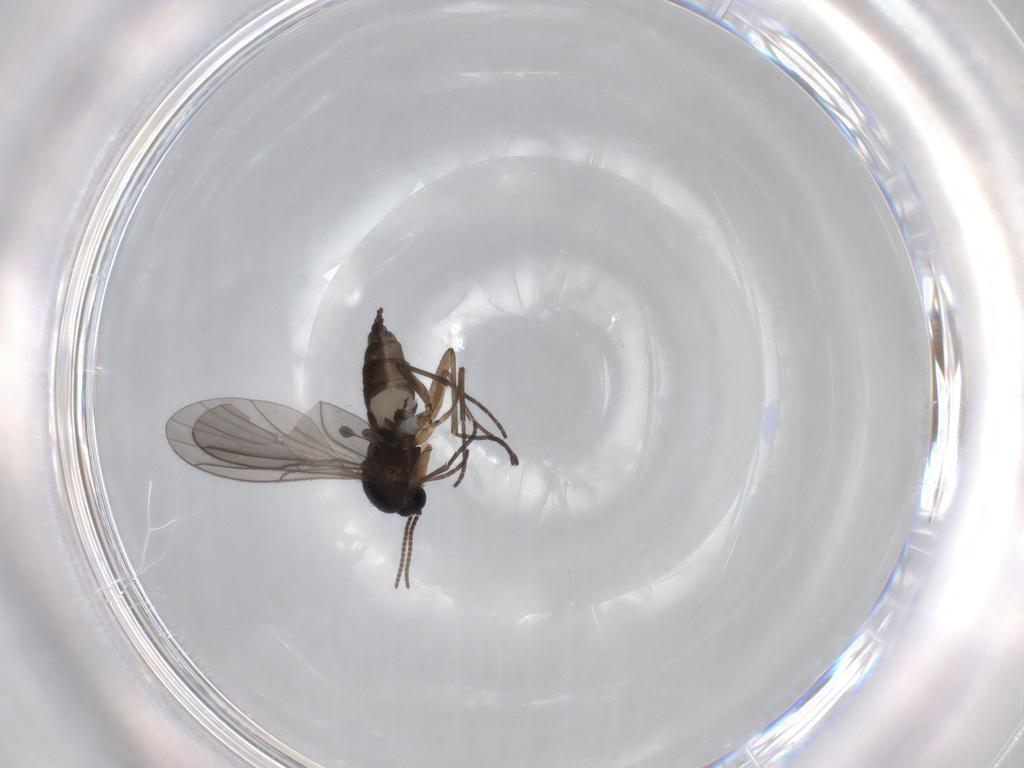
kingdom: Animalia
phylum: Arthropoda
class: Insecta
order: Diptera
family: Sciaridae
